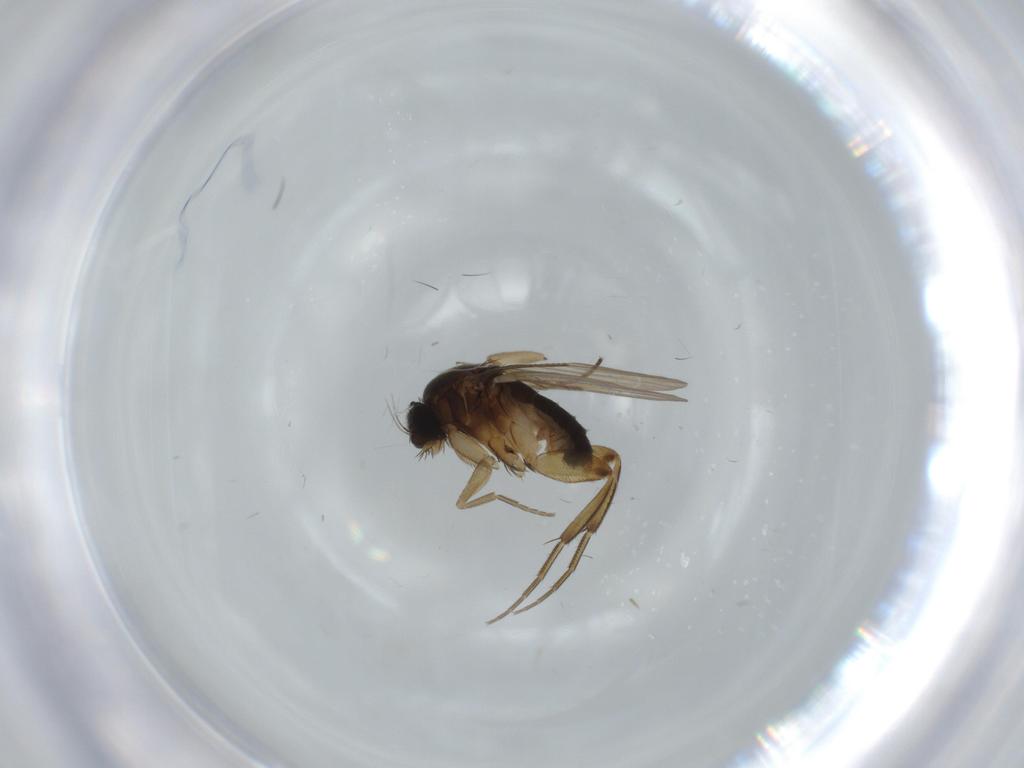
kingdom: Animalia
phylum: Arthropoda
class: Insecta
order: Diptera
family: Phoridae
